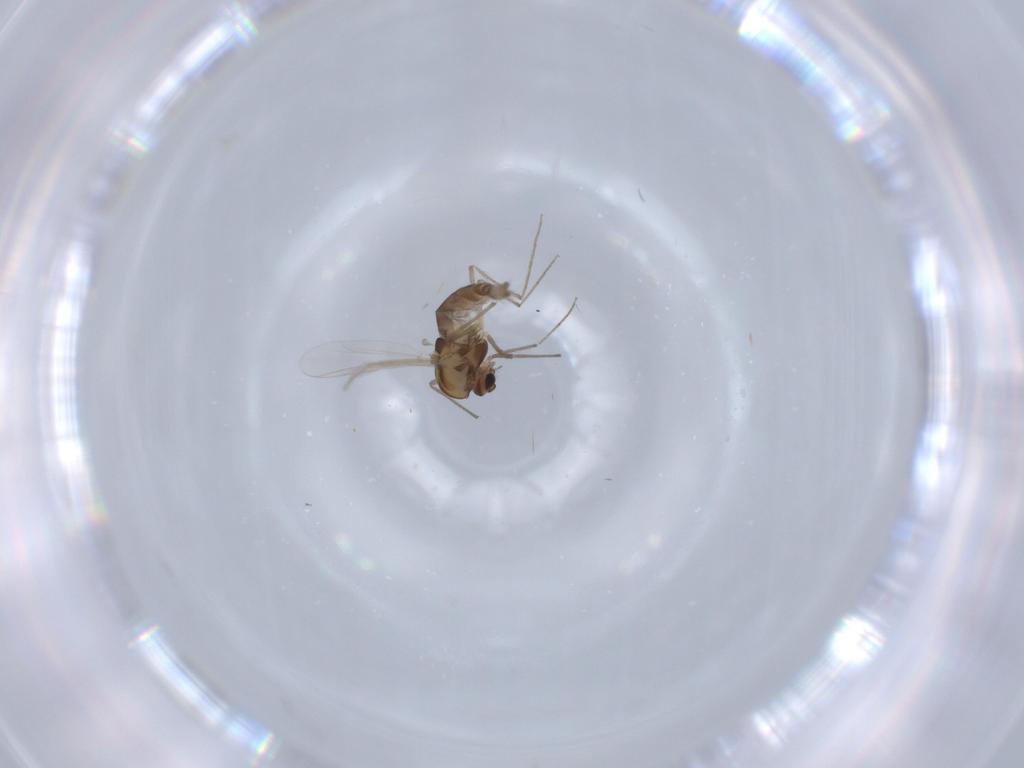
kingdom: Animalia
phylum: Arthropoda
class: Insecta
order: Diptera
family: Chironomidae
